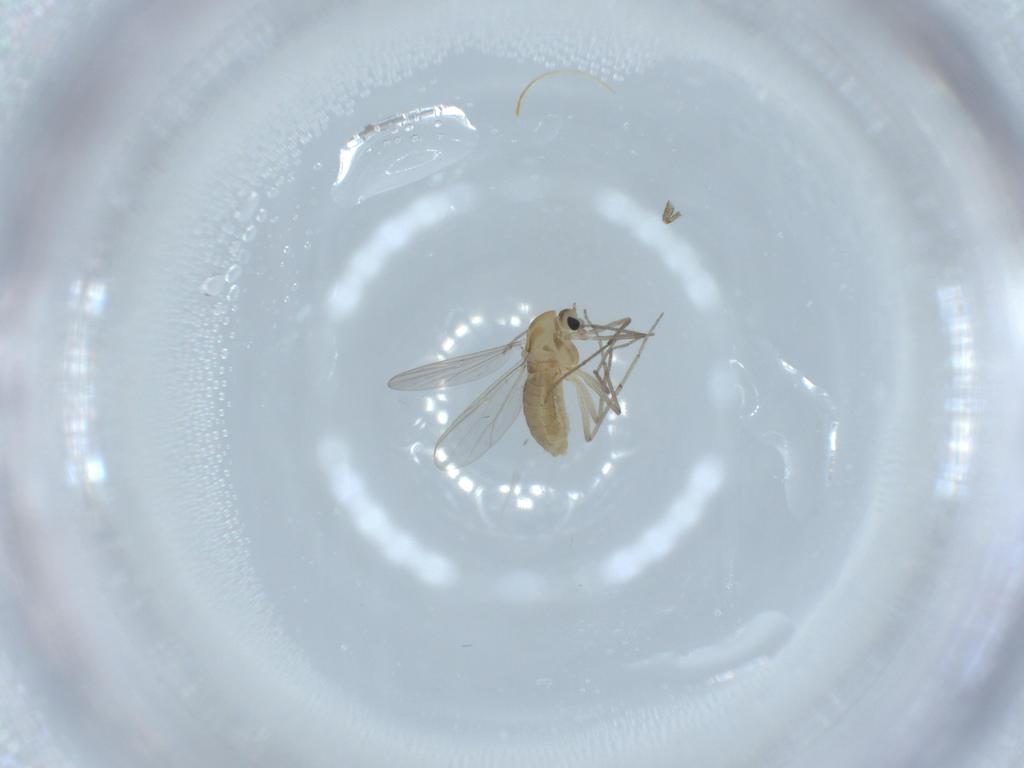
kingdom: Animalia
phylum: Arthropoda
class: Insecta
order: Diptera
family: Chironomidae
